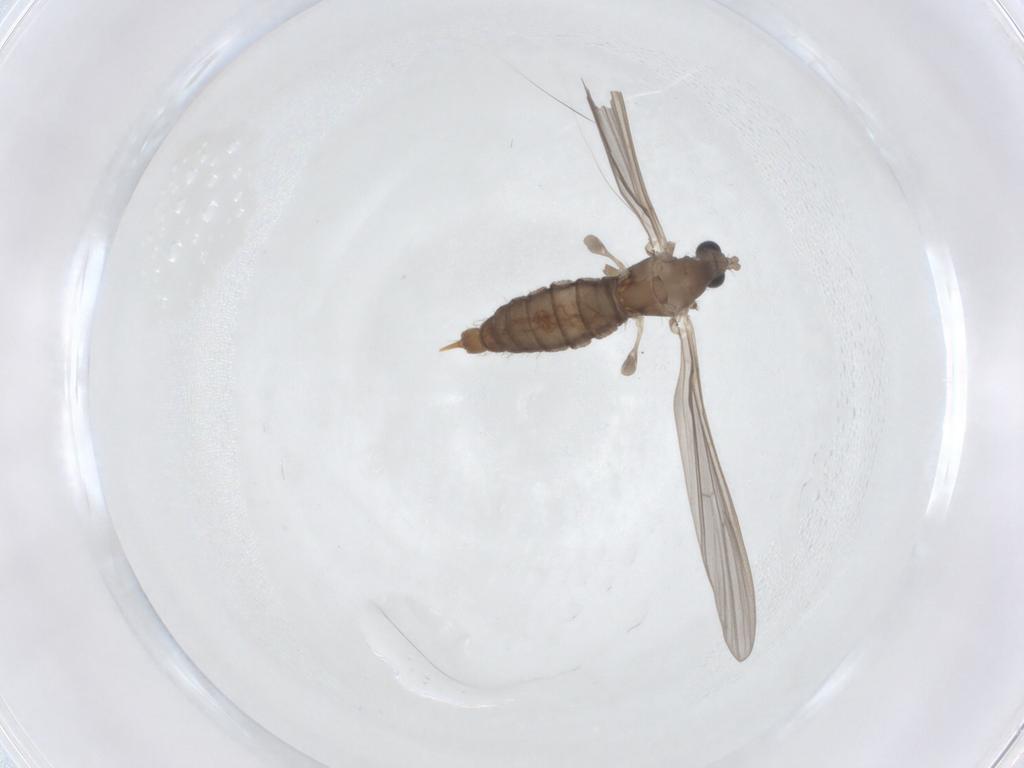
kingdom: Animalia
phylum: Arthropoda
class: Insecta
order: Diptera
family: Limoniidae
